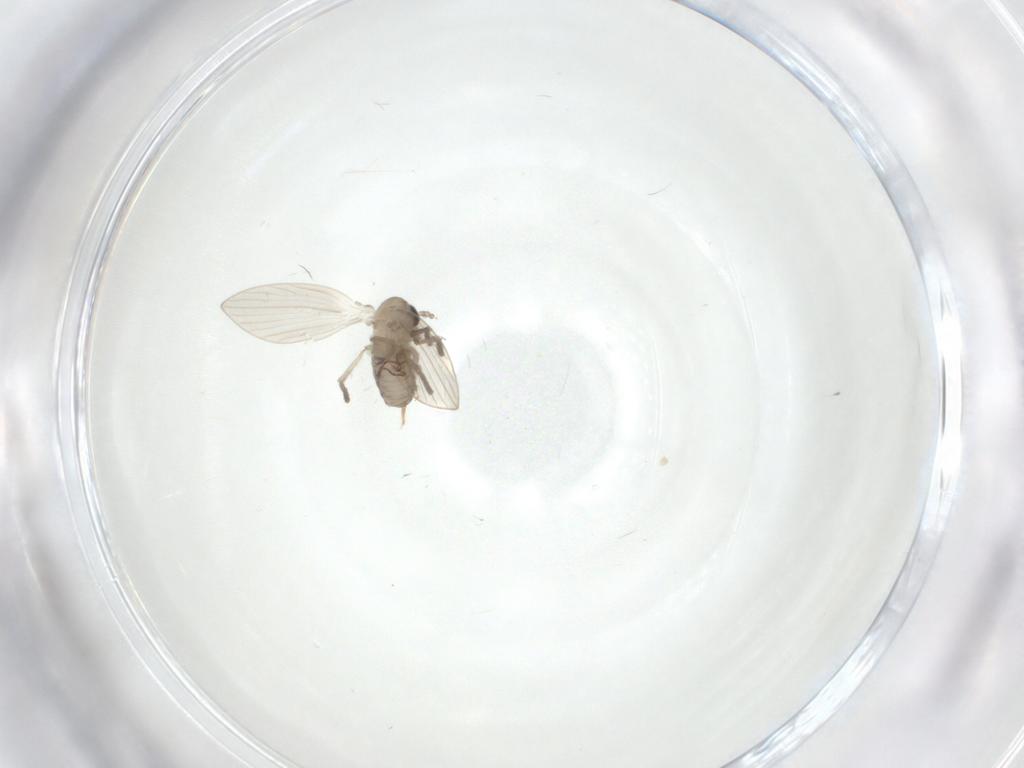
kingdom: Animalia
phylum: Arthropoda
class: Insecta
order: Diptera
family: Psychodidae
